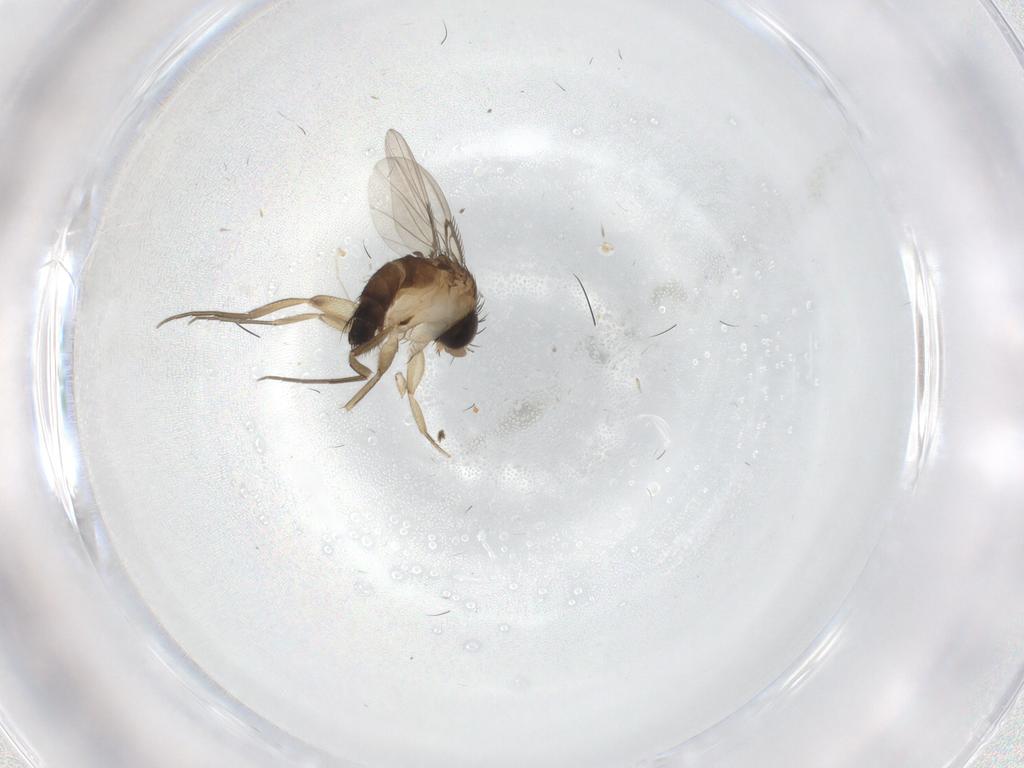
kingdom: Animalia
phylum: Arthropoda
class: Insecta
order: Diptera
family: Phoridae
